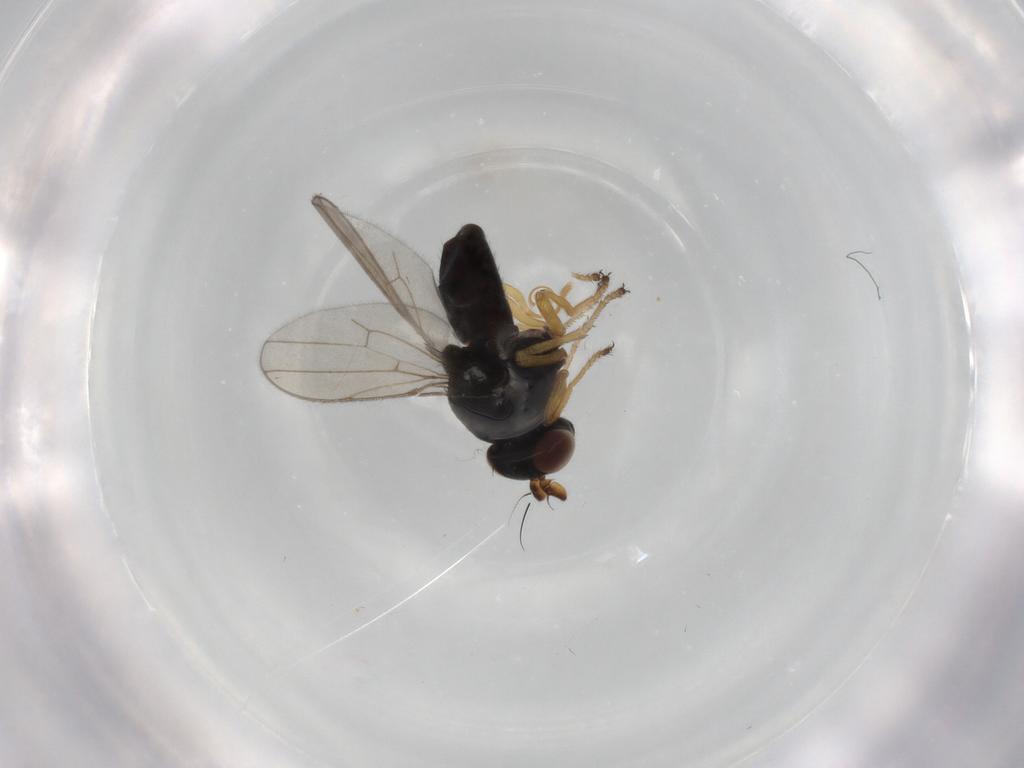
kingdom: Animalia
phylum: Arthropoda
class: Insecta
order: Diptera
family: Ephydridae
